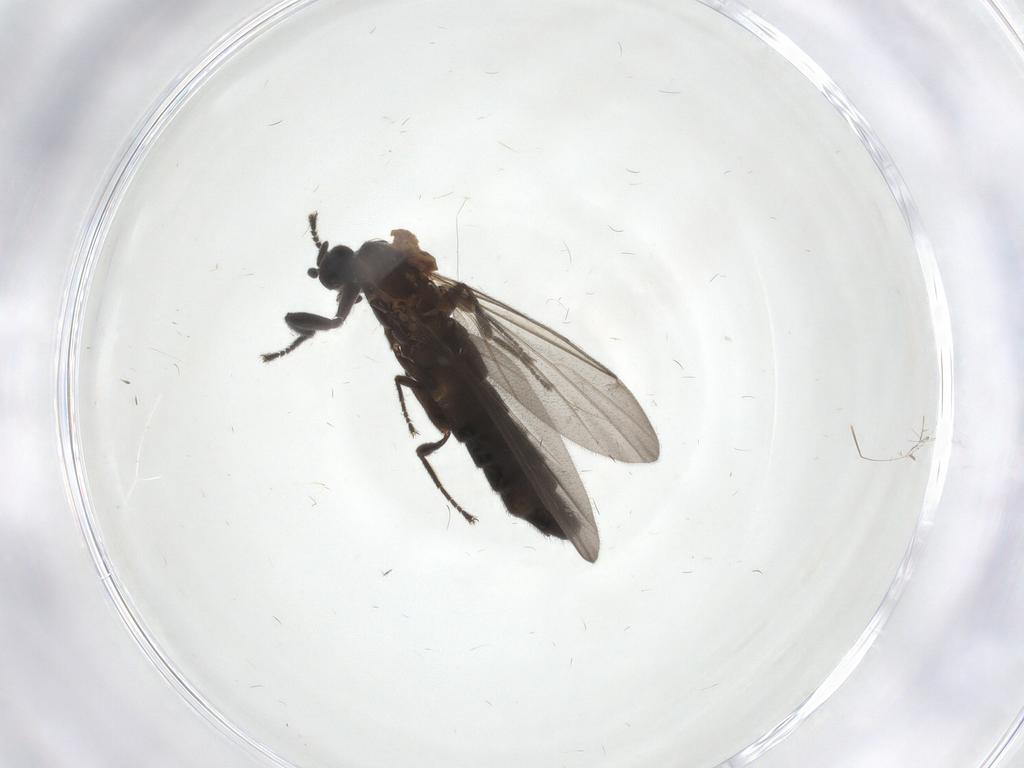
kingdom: Animalia
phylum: Arthropoda
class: Insecta
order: Diptera
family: Scatopsidae
